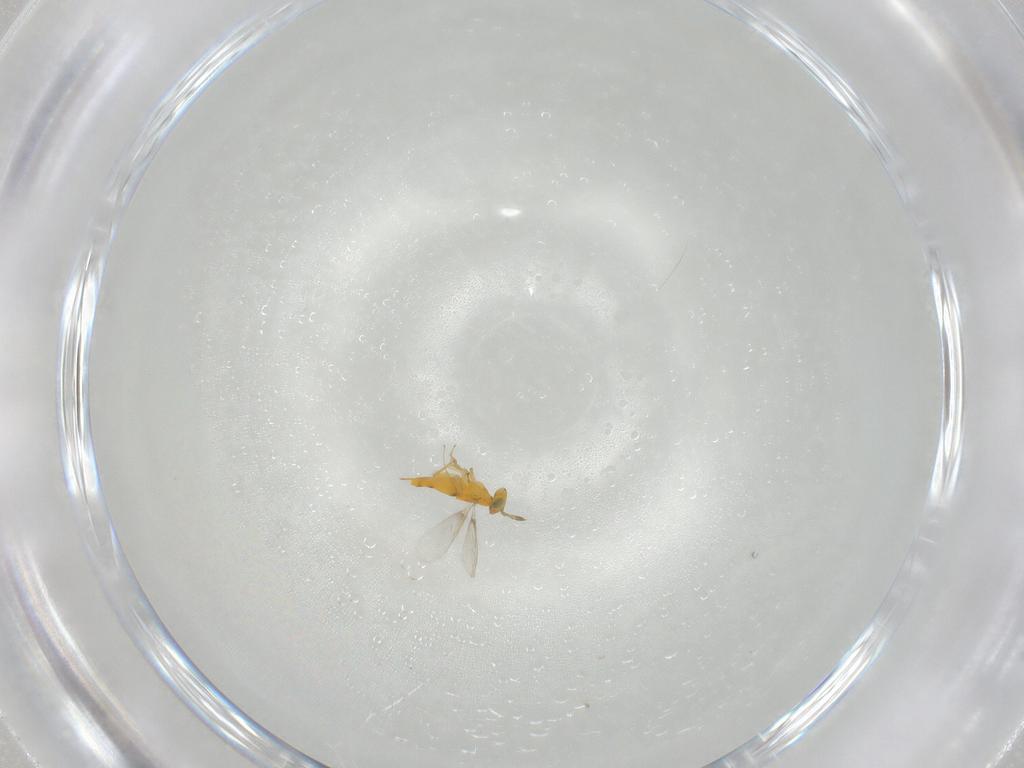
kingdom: Animalia
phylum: Arthropoda
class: Insecta
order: Hymenoptera
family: Aphelinidae
